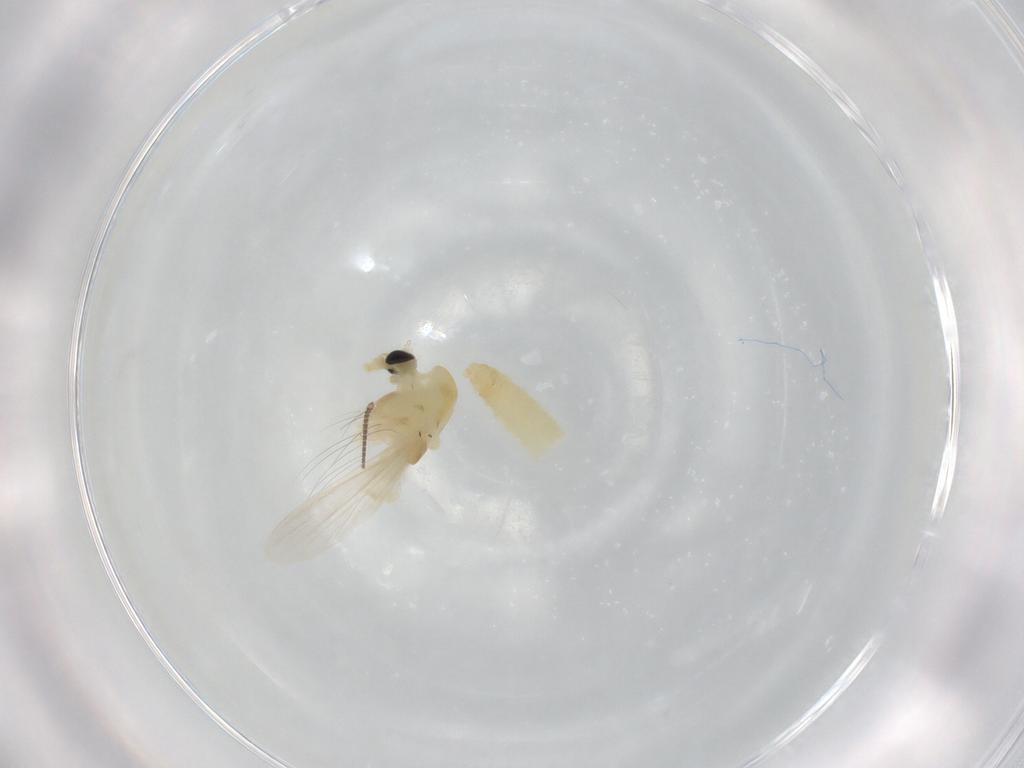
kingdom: Animalia
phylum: Arthropoda
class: Insecta
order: Diptera
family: Chironomidae
